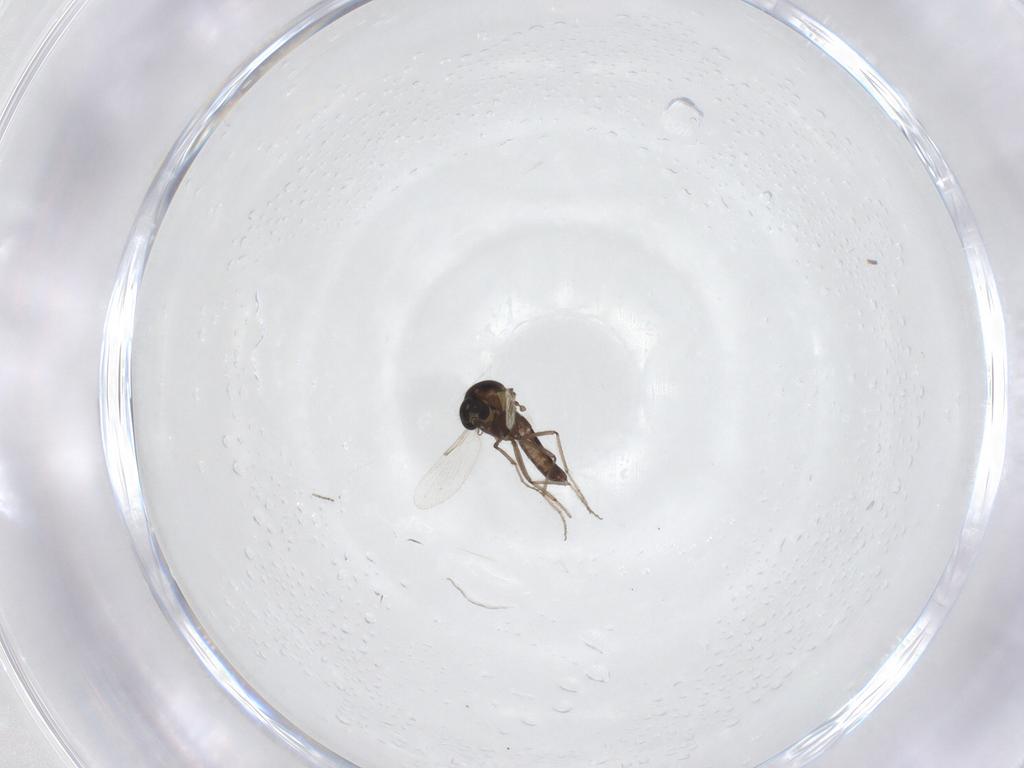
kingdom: Animalia
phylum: Arthropoda
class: Insecta
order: Diptera
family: Ceratopogonidae
